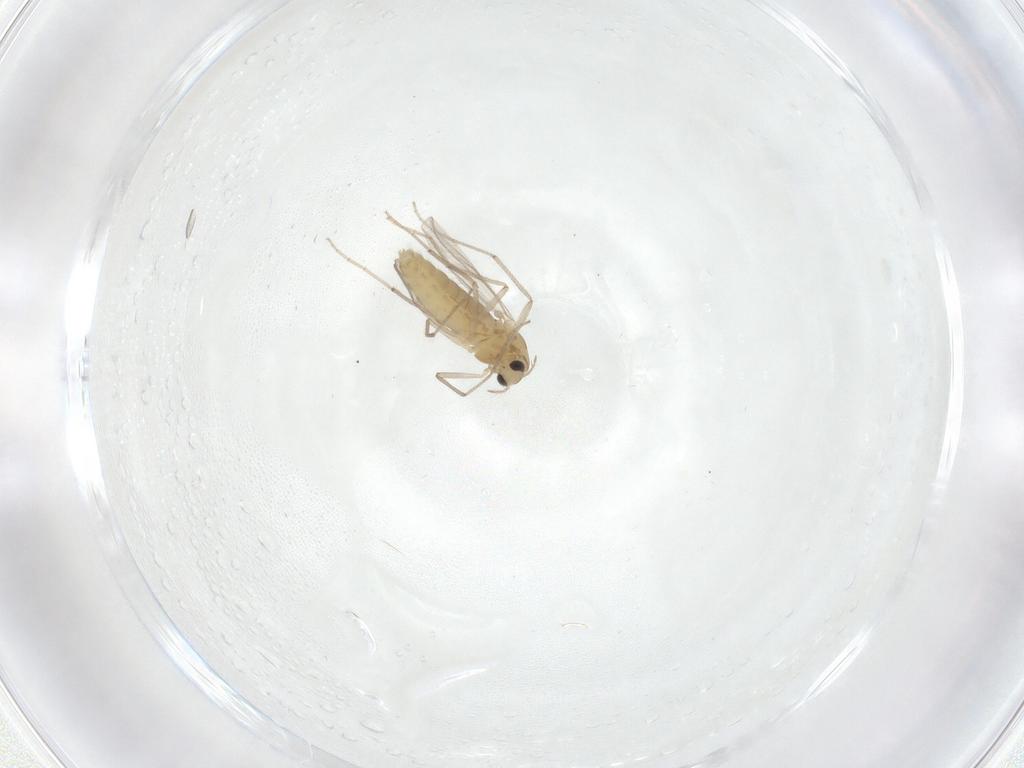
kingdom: Animalia
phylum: Arthropoda
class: Insecta
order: Diptera
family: Chironomidae
